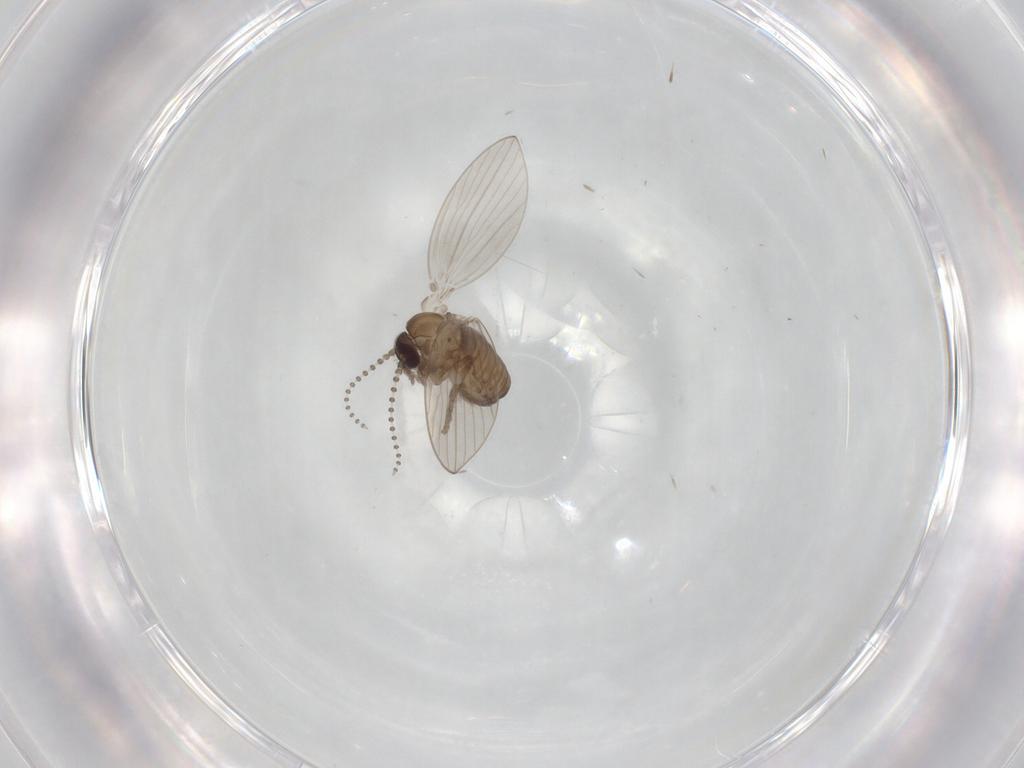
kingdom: Animalia
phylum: Arthropoda
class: Insecta
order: Diptera
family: Psychodidae
